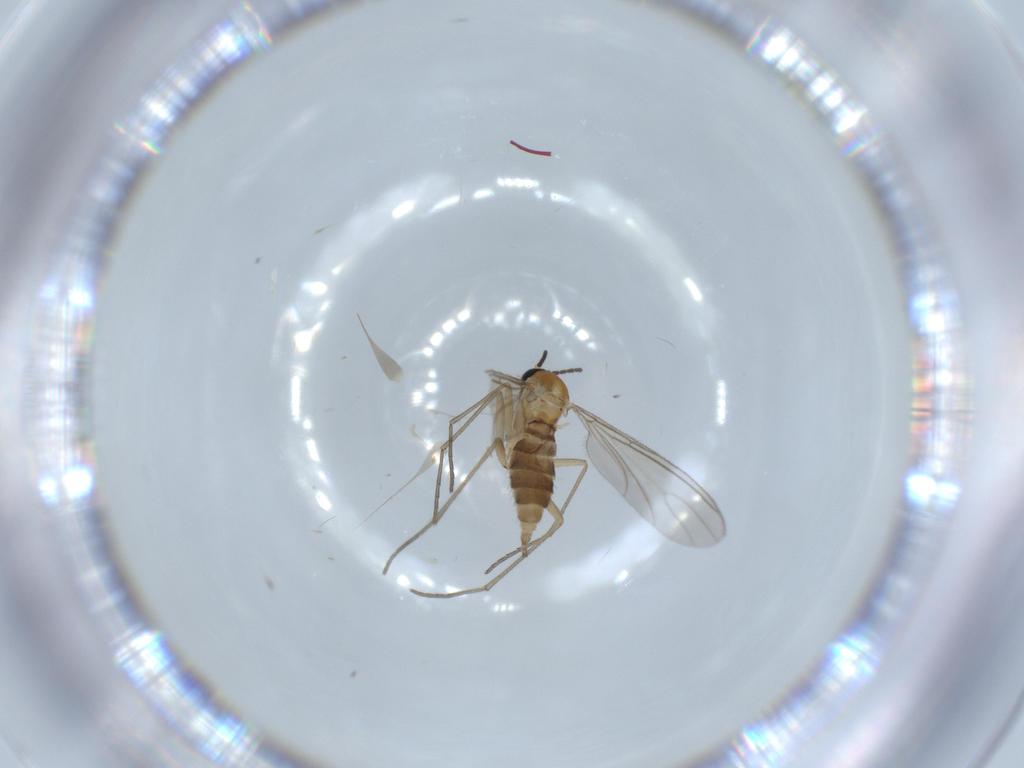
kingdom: Animalia
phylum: Arthropoda
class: Insecta
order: Diptera
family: Sciaridae
